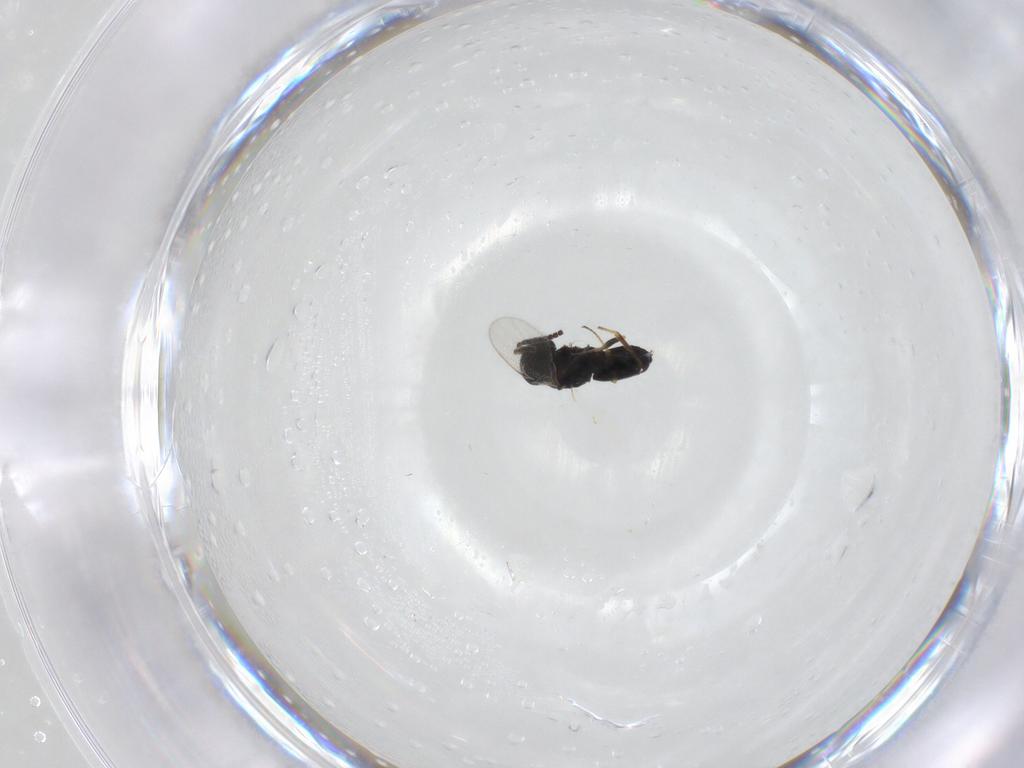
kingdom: Animalia
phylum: Arthropoda
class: Insecta
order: Hymenoptera
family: Scelionidae
